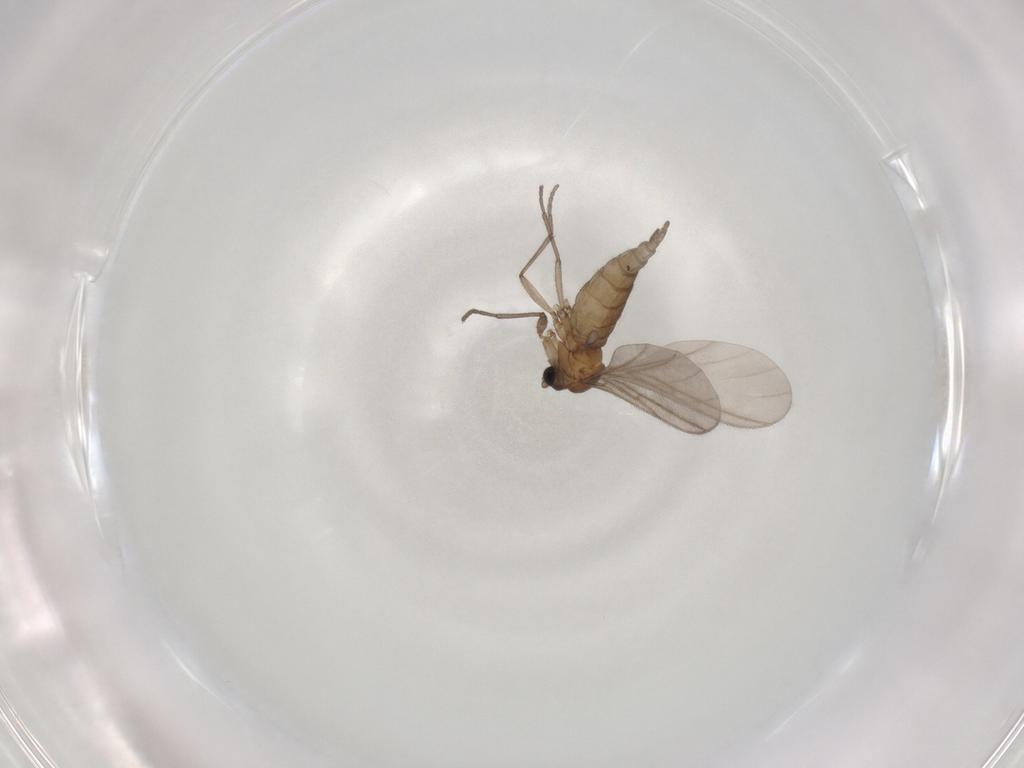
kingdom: Animalia
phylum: Arthropoda
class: Insecta
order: Diptera
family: Sciaridae
